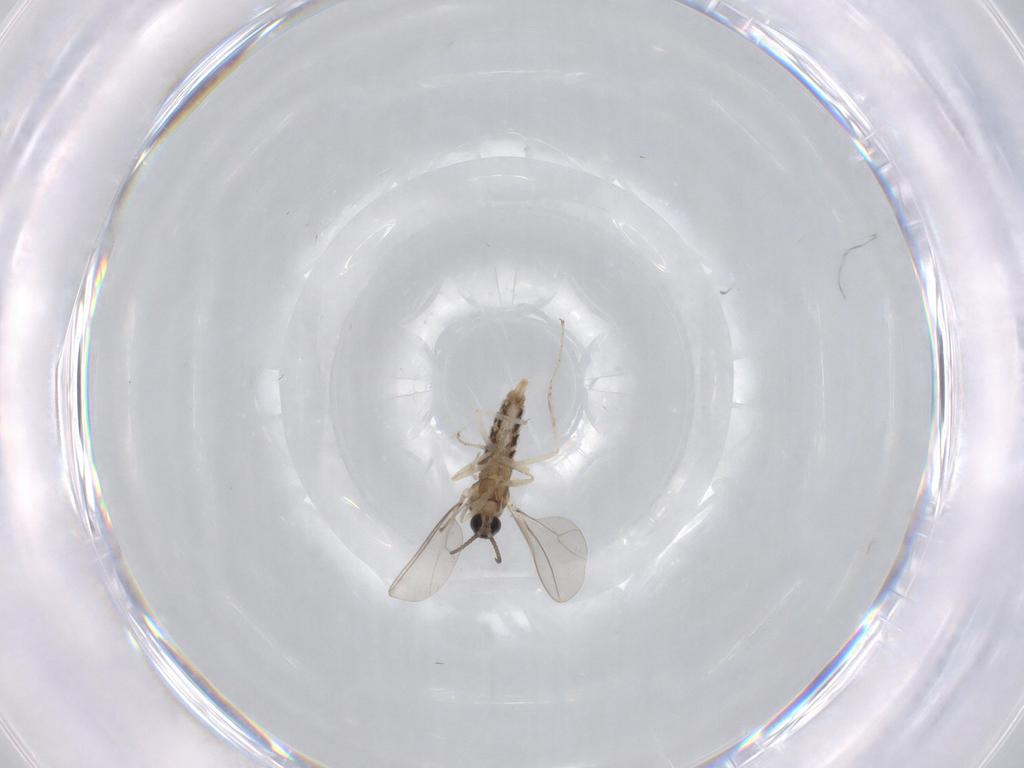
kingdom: Animalia
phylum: Arthropoda
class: Insecta
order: Diptera
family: Cecidomyiidae
